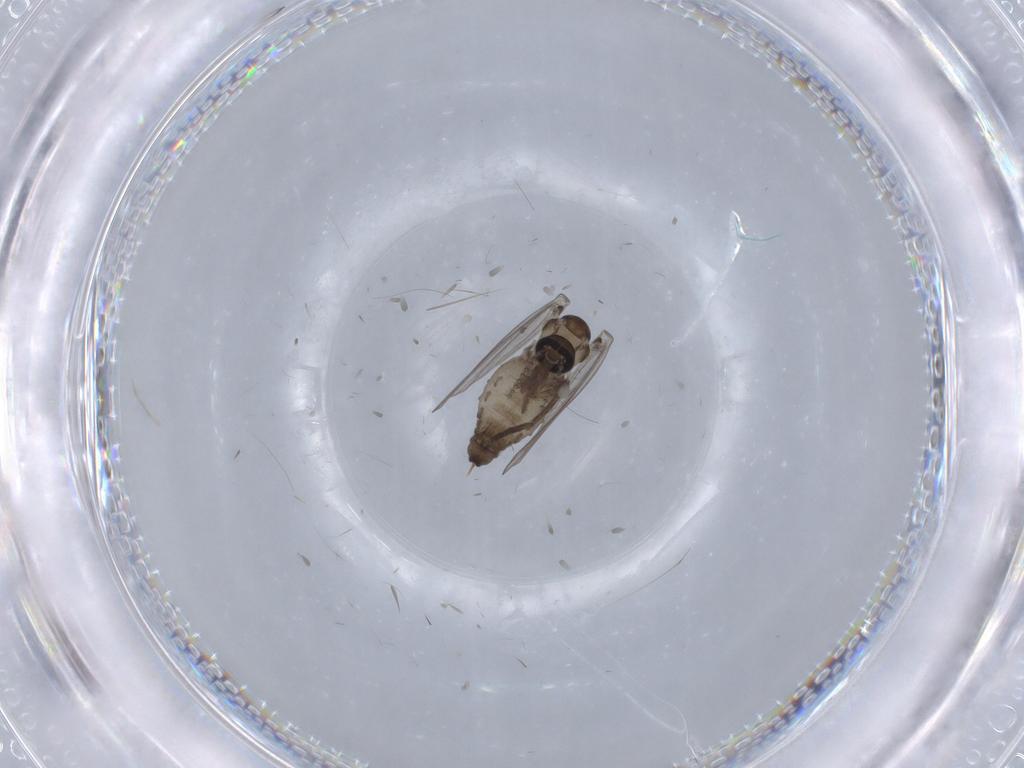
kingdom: Animalia
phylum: Arthropoda
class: Insecta
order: Diptera
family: Psychodidae
